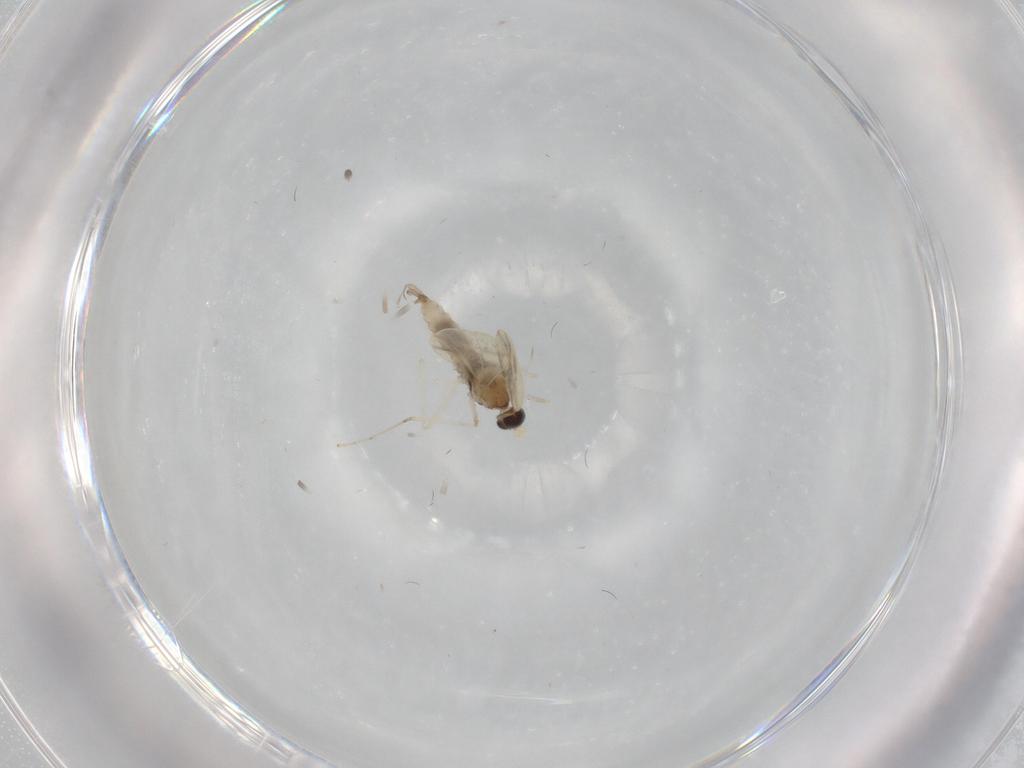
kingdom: Animalia
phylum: Arthropoda
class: Insecta
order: Diptera
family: Cecidomyiidae
